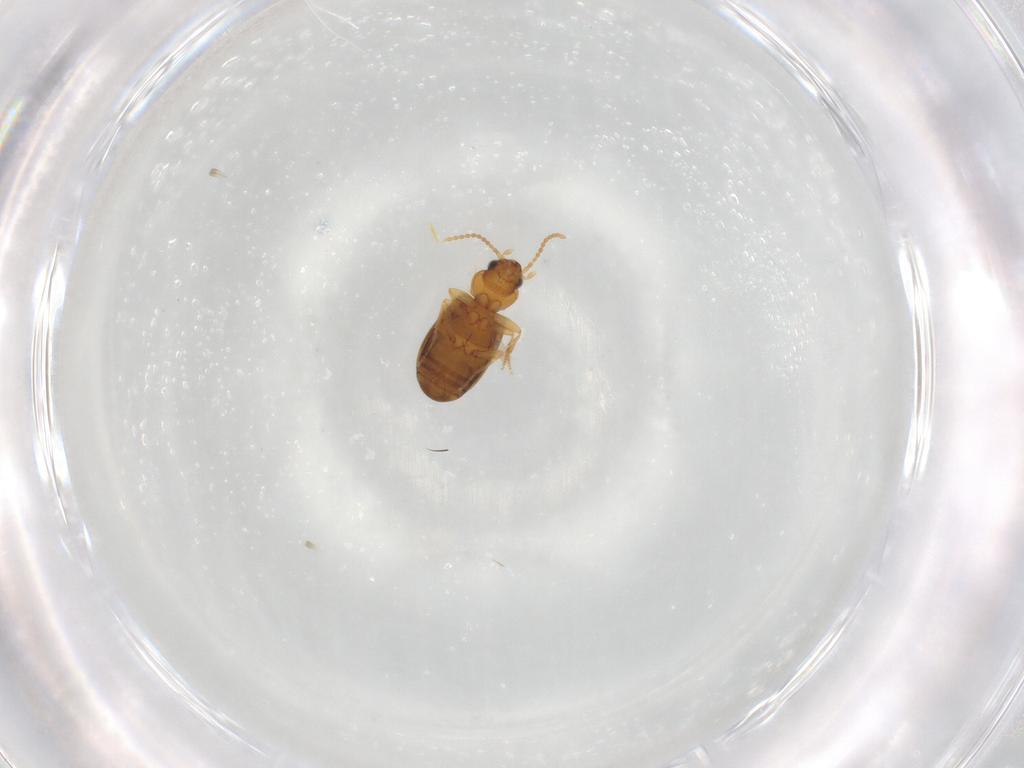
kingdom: Animalia
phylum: Arthropoda
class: Insecta
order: Coleoptera
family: Carabidae
